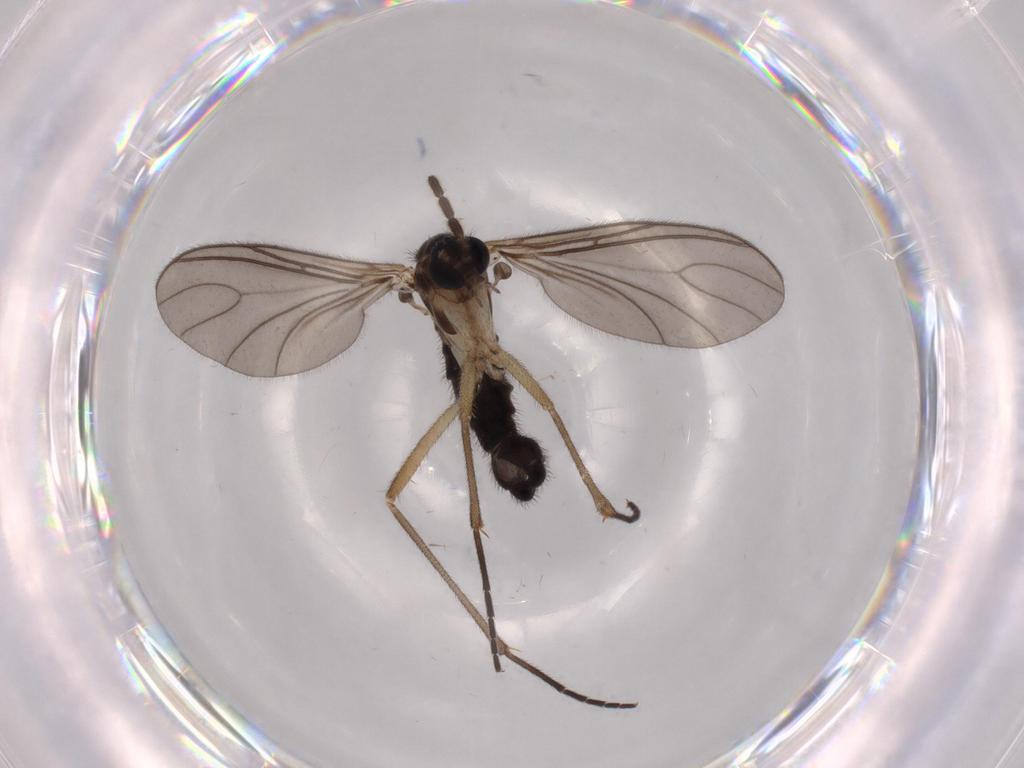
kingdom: Animalia
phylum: Arthropoda
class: Insecta
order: Diptera
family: Sciaridae
